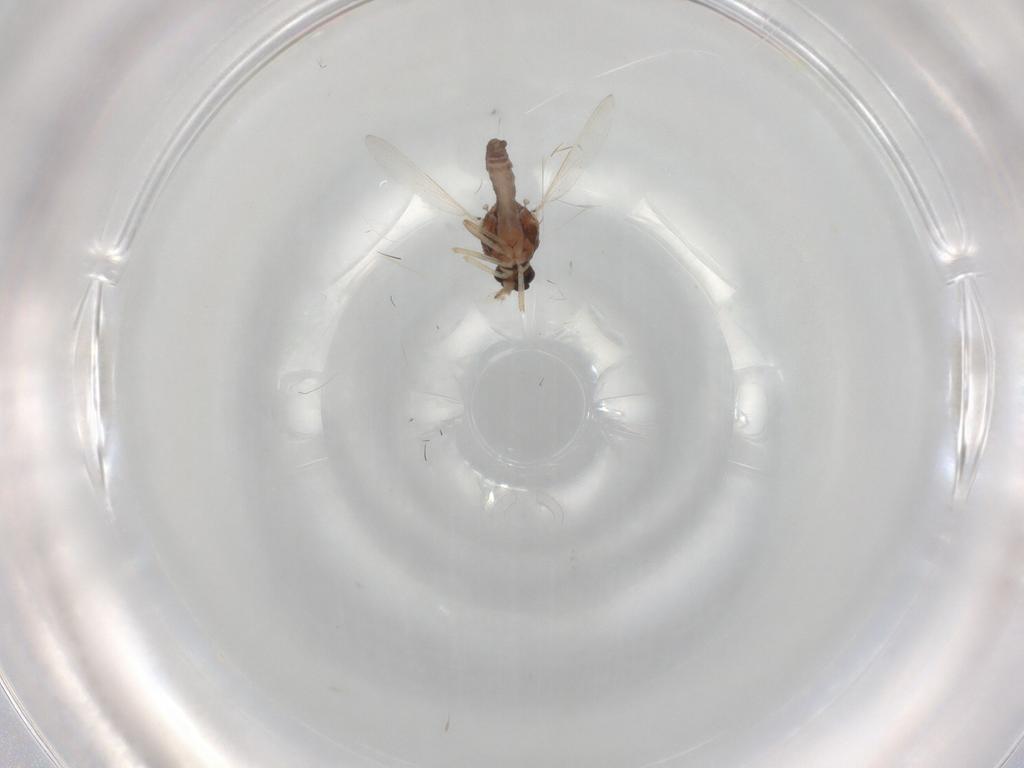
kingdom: Animalia
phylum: Arthropoda
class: Insecta
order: Diptera
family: Ceratopogonidae
